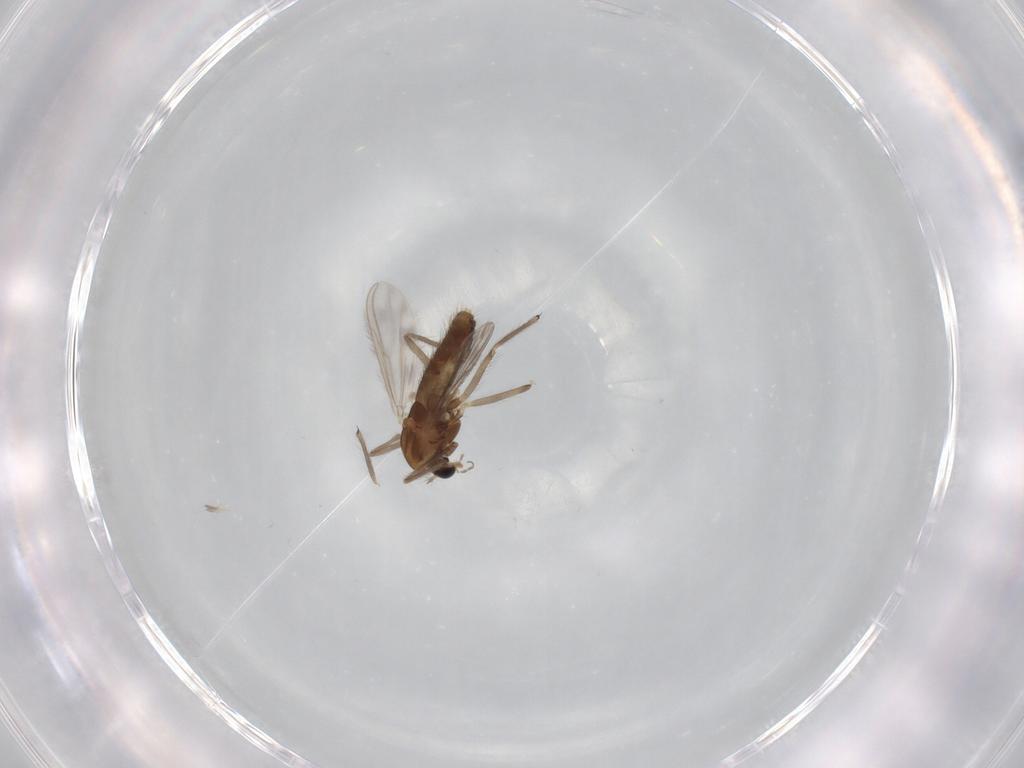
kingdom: Animalia
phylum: Arthropoda
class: Insecta
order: Diptera
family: Chironomidae
